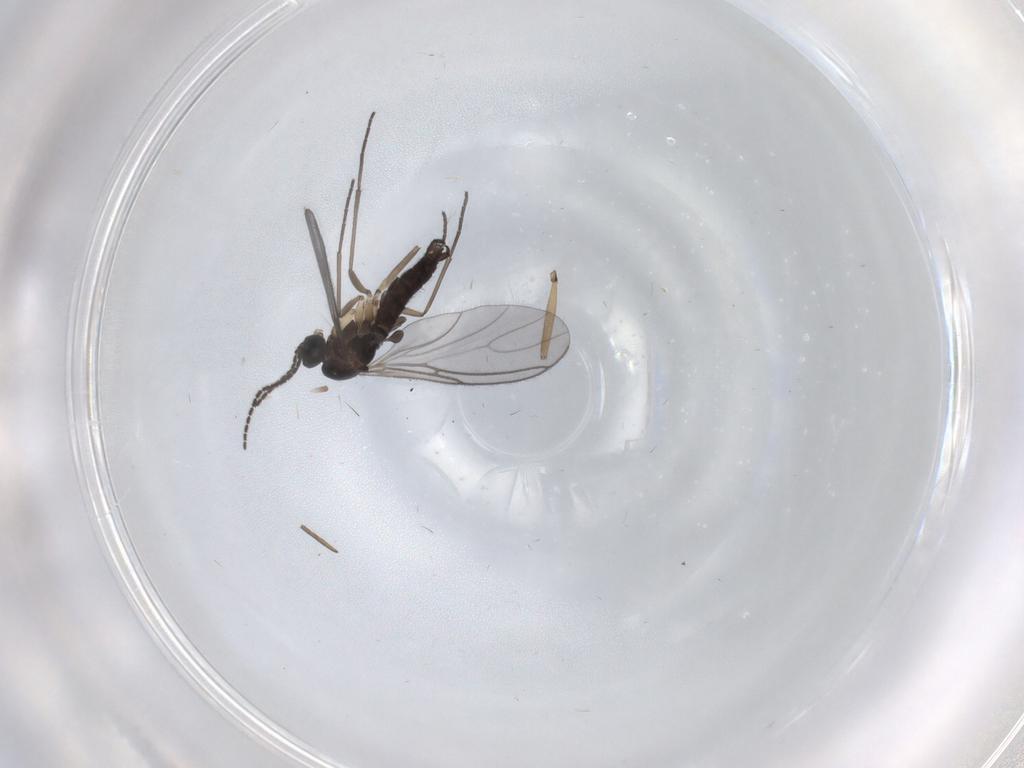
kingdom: Animalia
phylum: Arthropoda
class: Insecta
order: Diptera
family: Sciaridae
